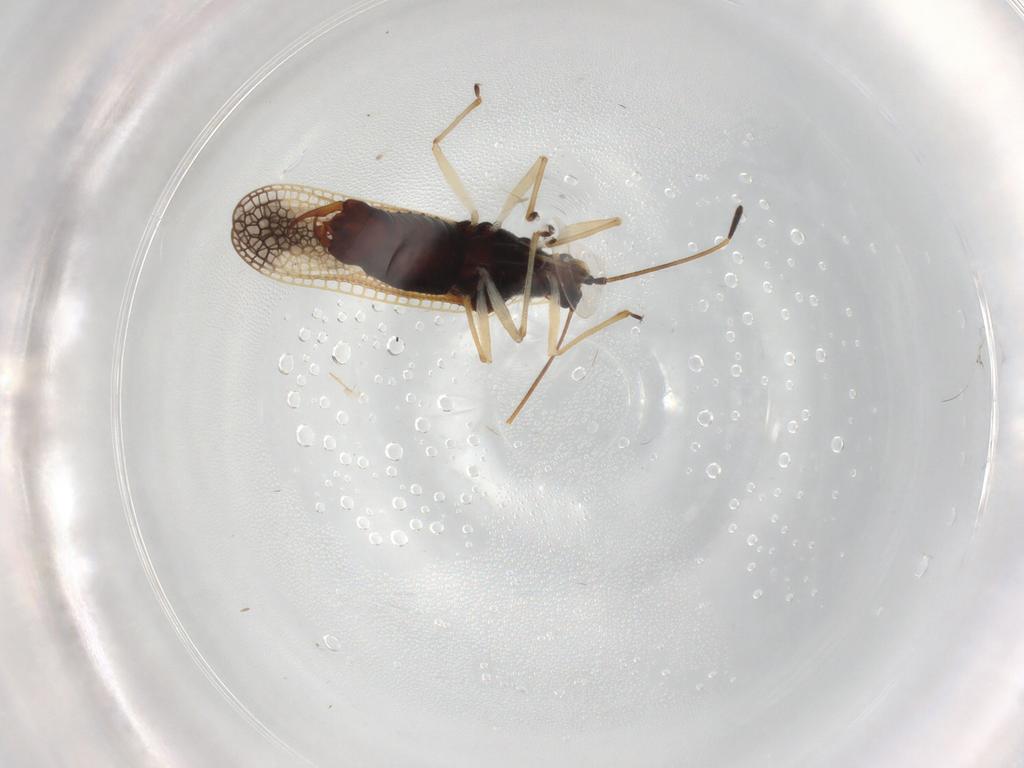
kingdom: Animalia
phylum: Arthropoda
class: Insecta
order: Hemiptera
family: Tingidae
